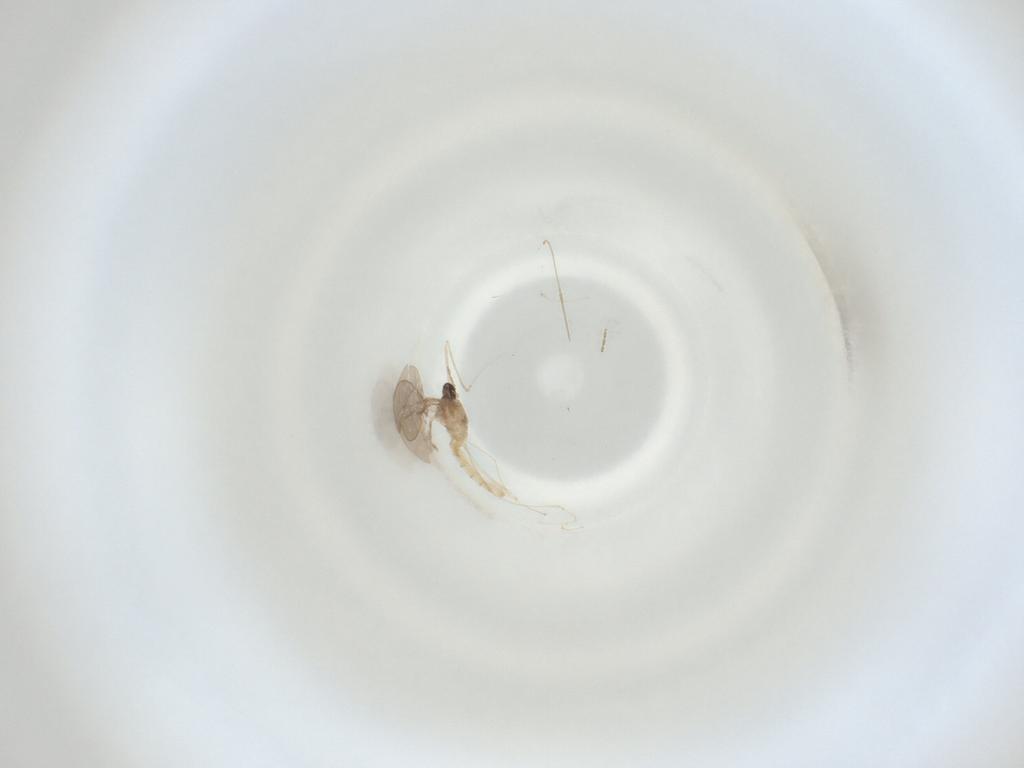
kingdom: Animalia
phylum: Arthropoda
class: Insecta
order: Diptera
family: Cecidomyiidae
